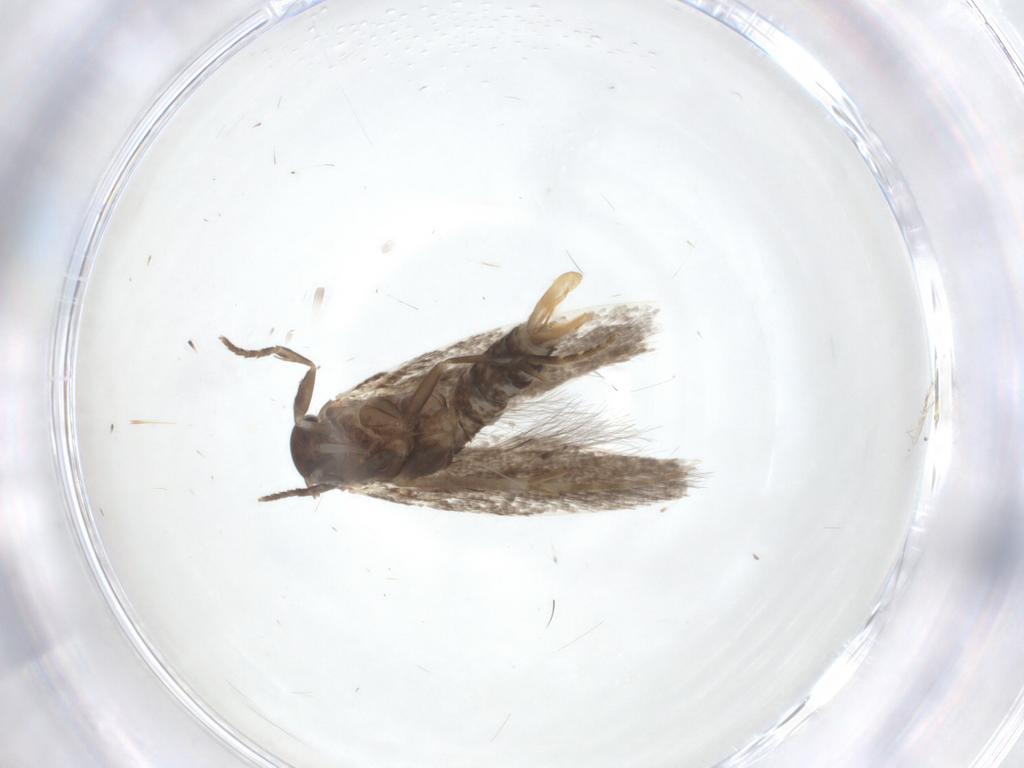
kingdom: Animalia
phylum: Arthropoda
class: Insecta
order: Lepidoptera
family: Elachistidae
